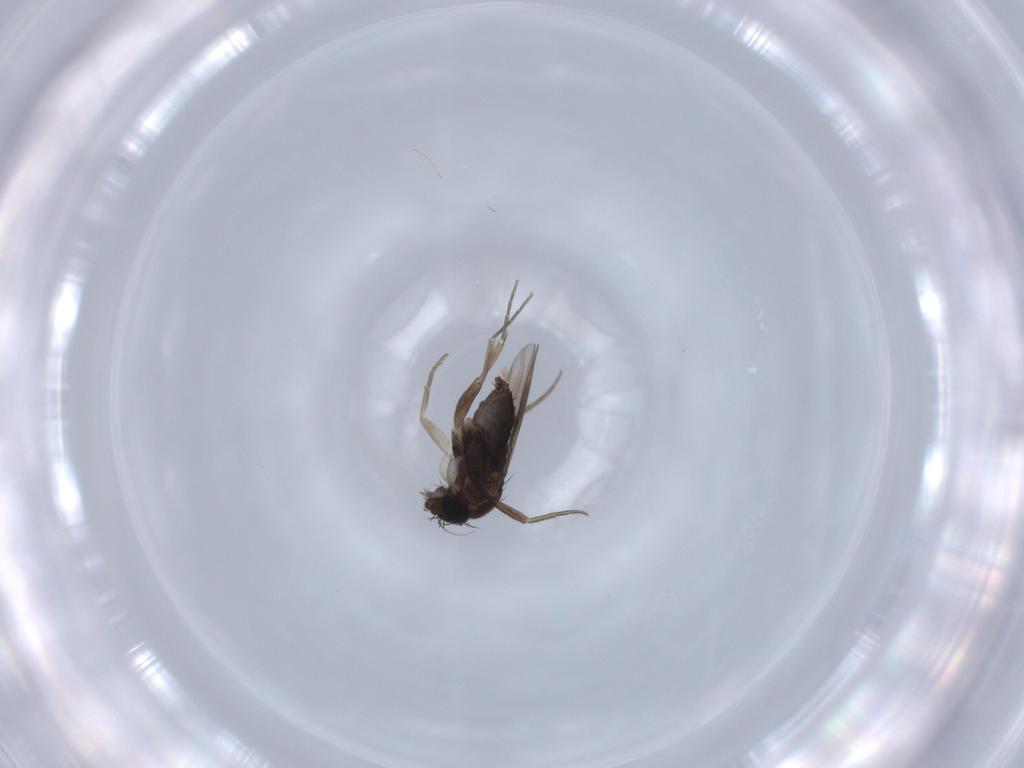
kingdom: Animalia
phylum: Arthropoda
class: Insecta
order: Diptera
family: Phoridae
